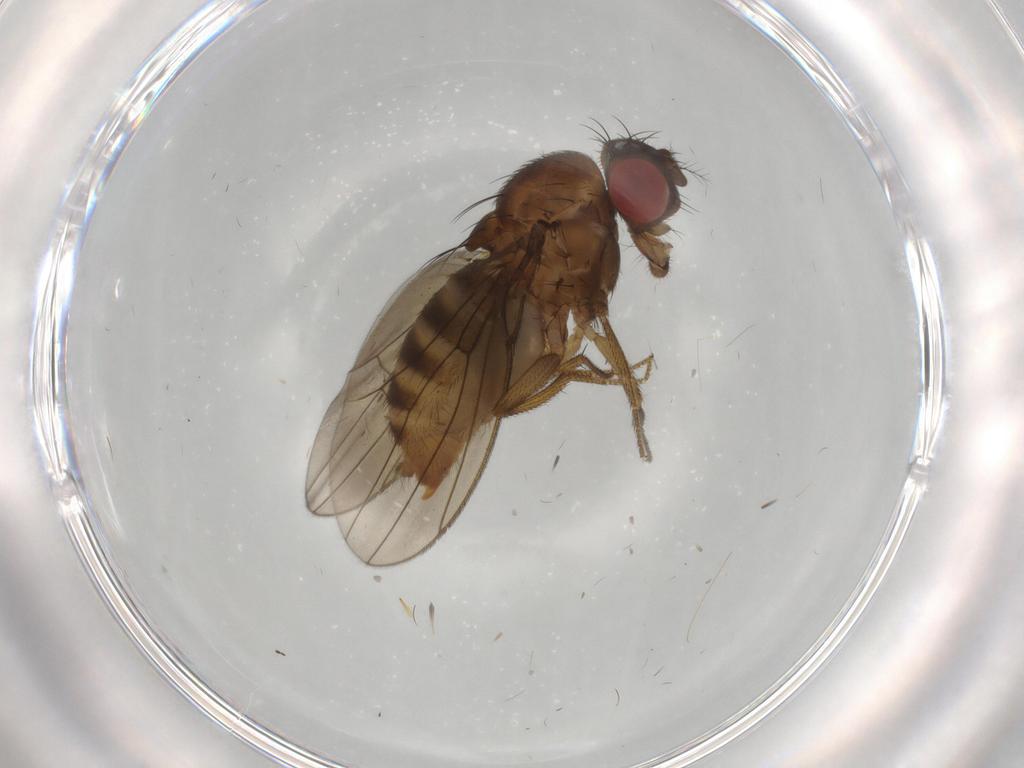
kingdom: Animalia
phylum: Arthropoda
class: Insecta
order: Diptera
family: Drosophilidae
